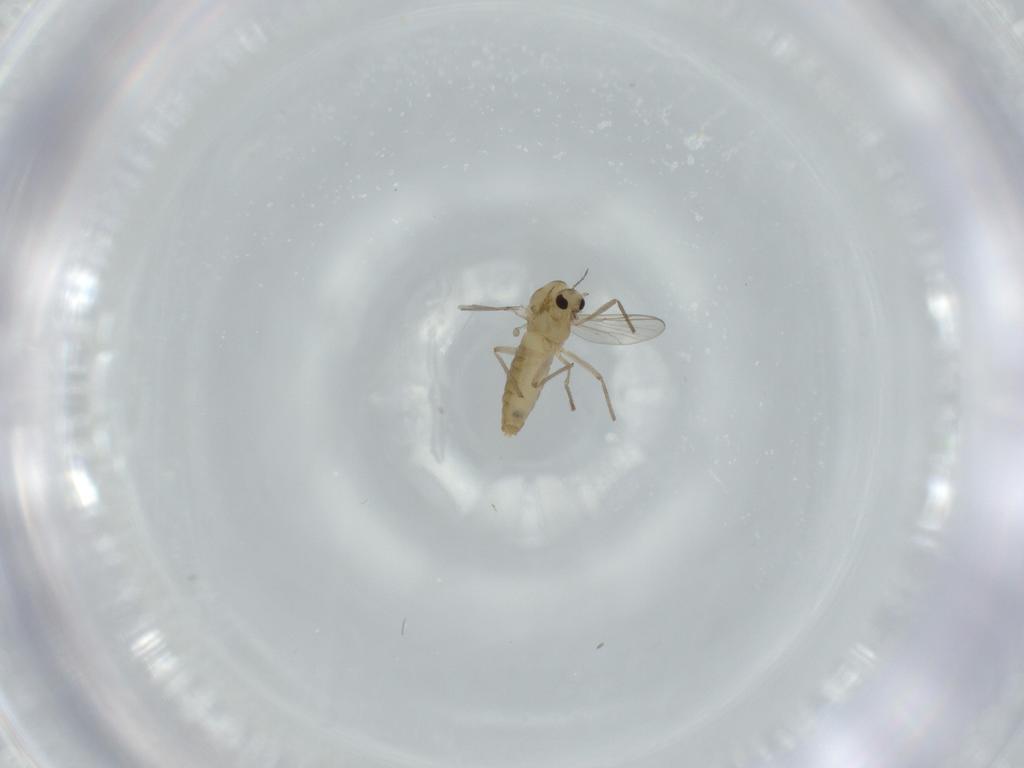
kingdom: Animalia
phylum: Arthropoda
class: Insecta
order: Diptera
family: Chironomidae
